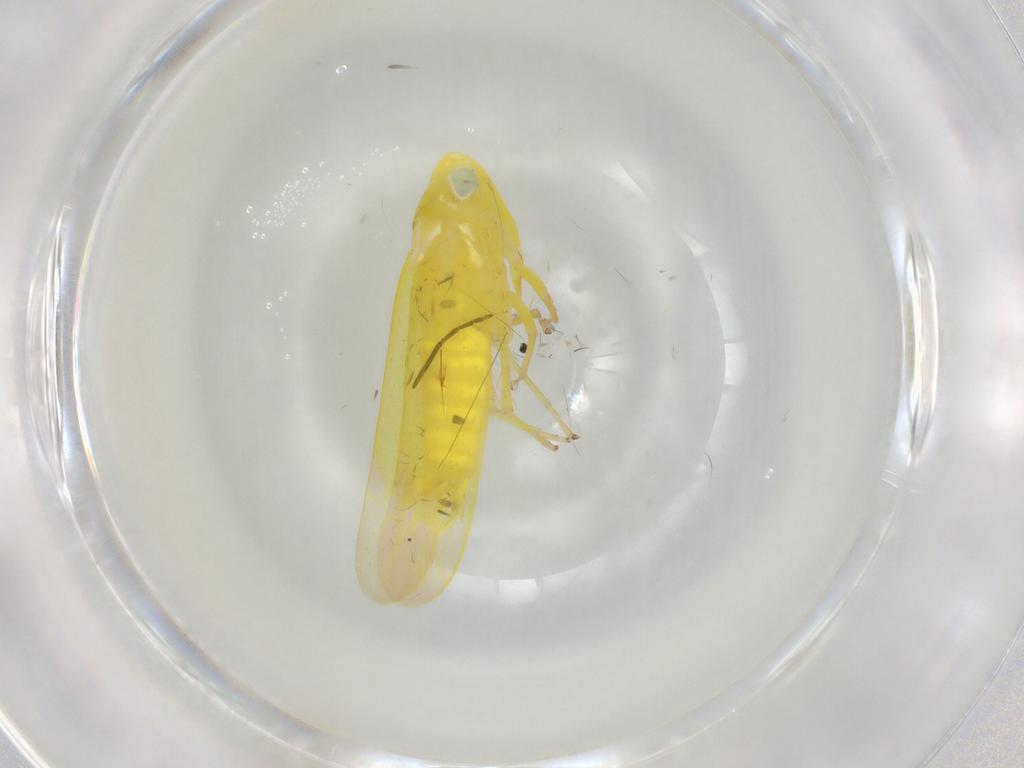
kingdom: Animalia
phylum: Arthropoda
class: Insecta
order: Hemiptera
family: Cicadellidae
